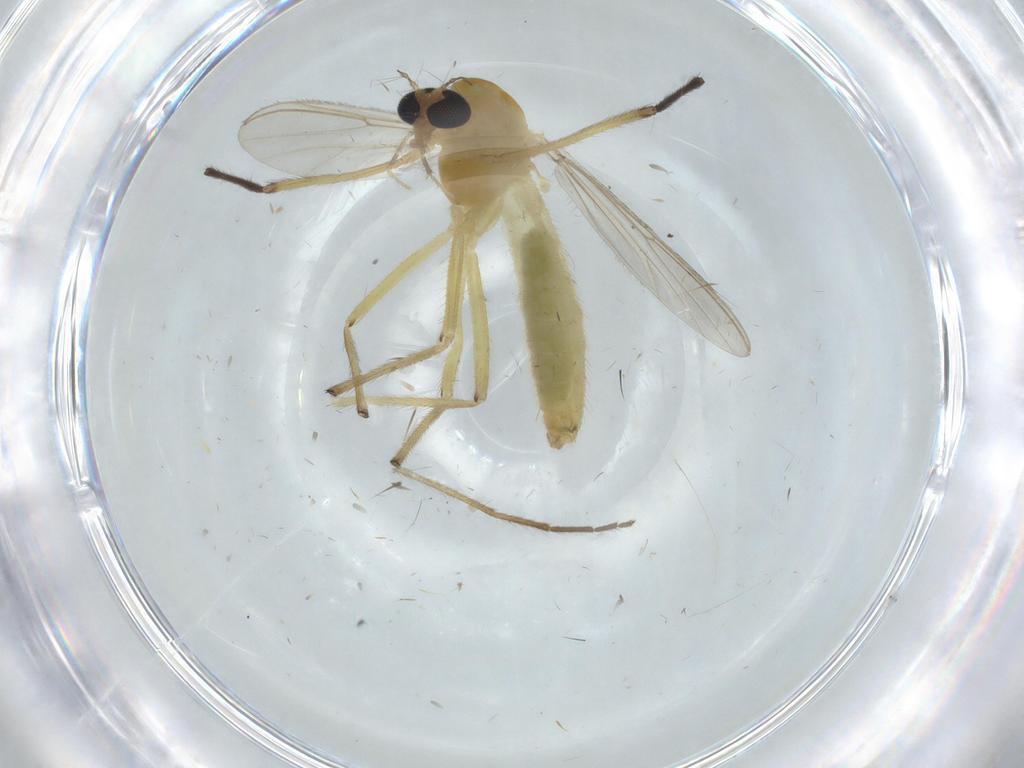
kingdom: Animalia
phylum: Arthropoda
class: Insecta
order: Diptera
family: Chironomidae
